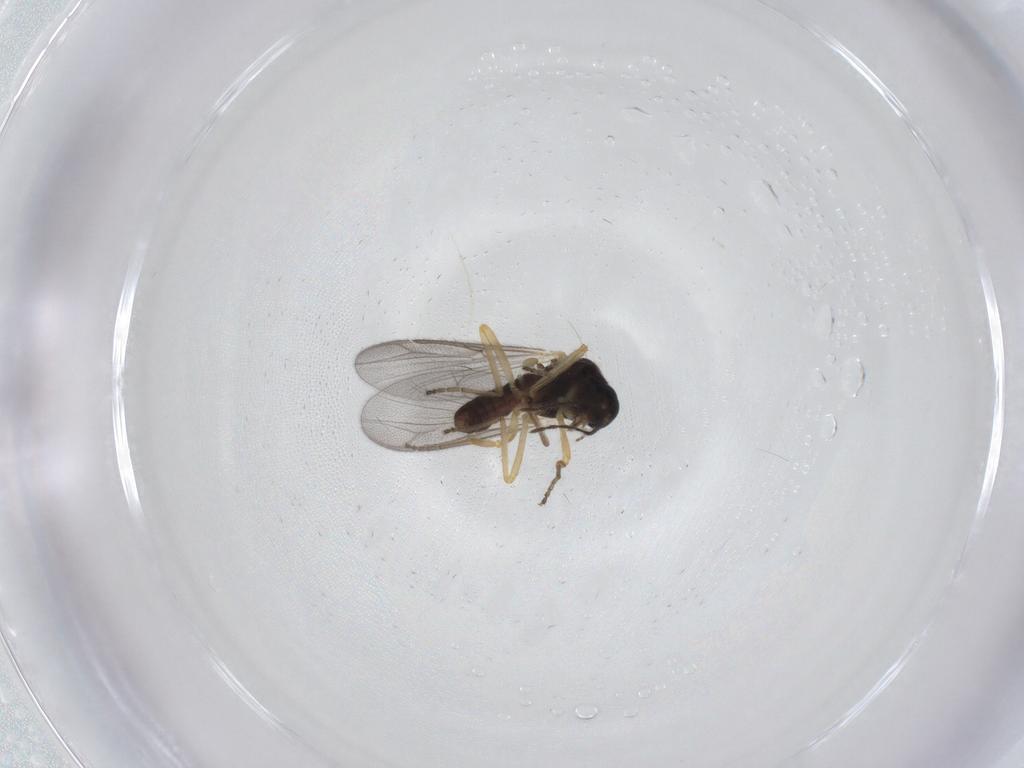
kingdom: Animalia
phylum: Arthropoda
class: Insecta
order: Diptera
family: Ceratopogonidae
